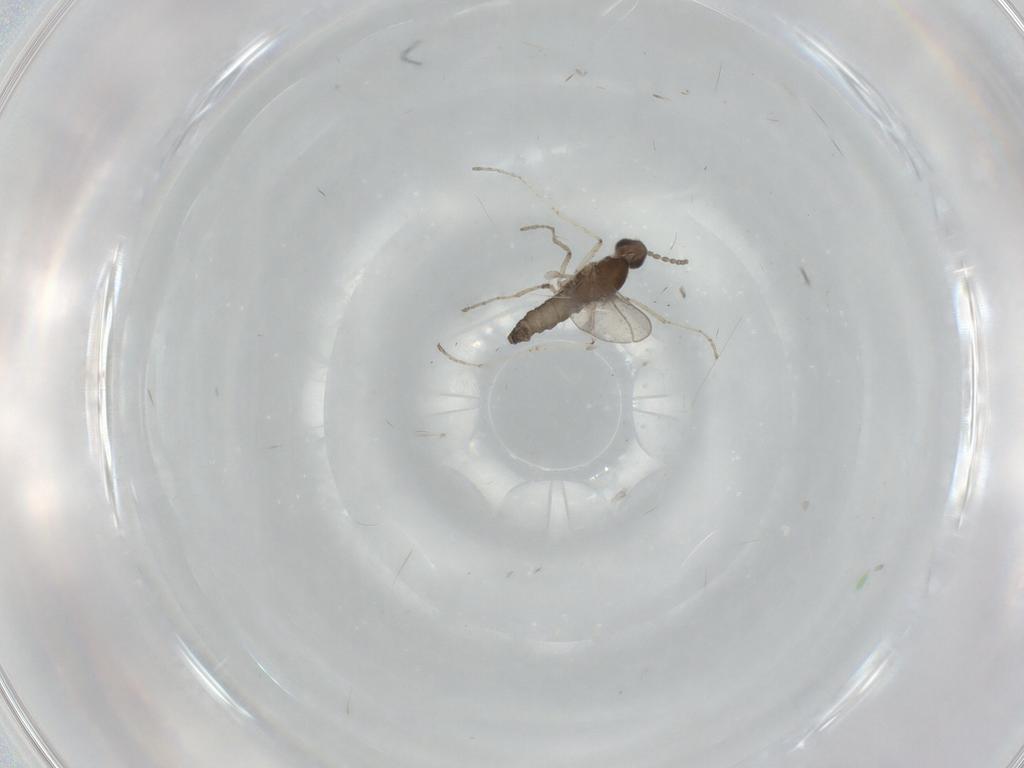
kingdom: Animalia
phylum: Arthropoda
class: Insecta
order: Diptera
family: Cecidomyiidae
